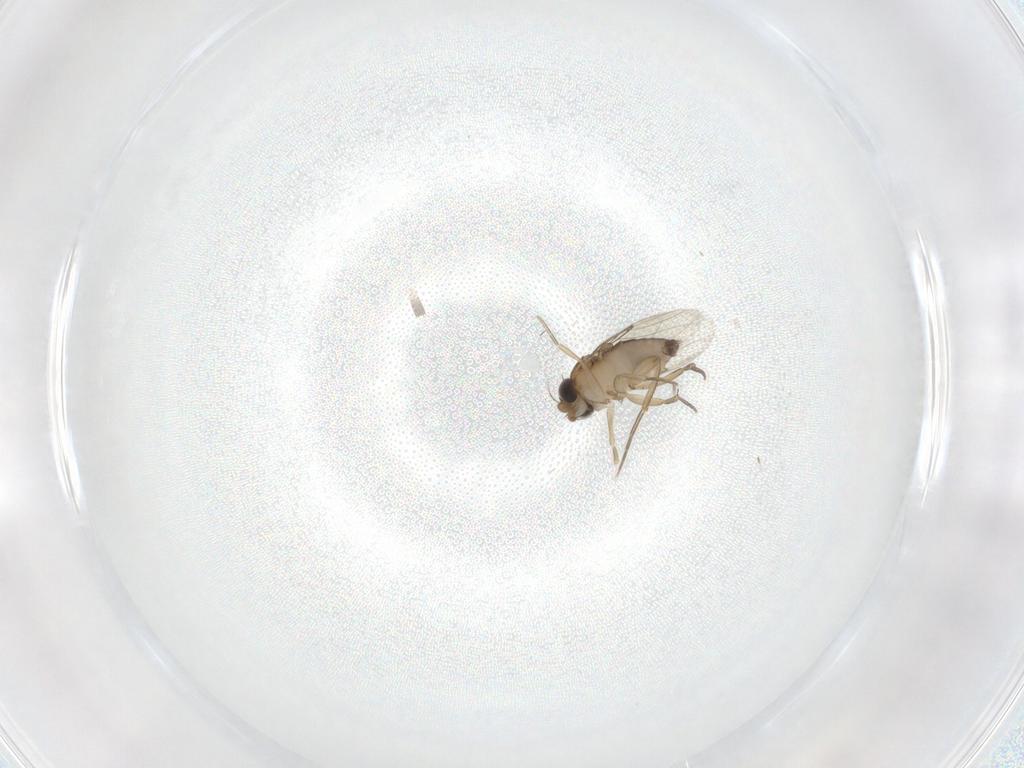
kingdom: Animalia
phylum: Arthropoda
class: Insecta
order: Diptera
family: Phoridae
